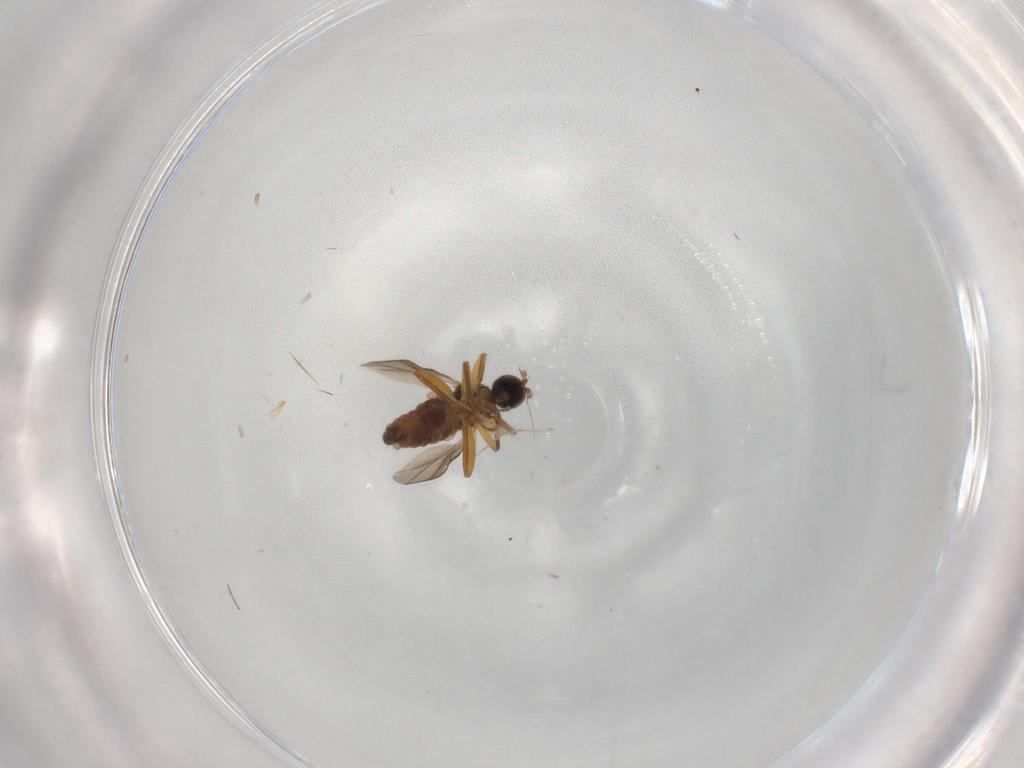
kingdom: Animalia
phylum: Arthropoda
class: Insecta
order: Diptera
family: Hybotidae
